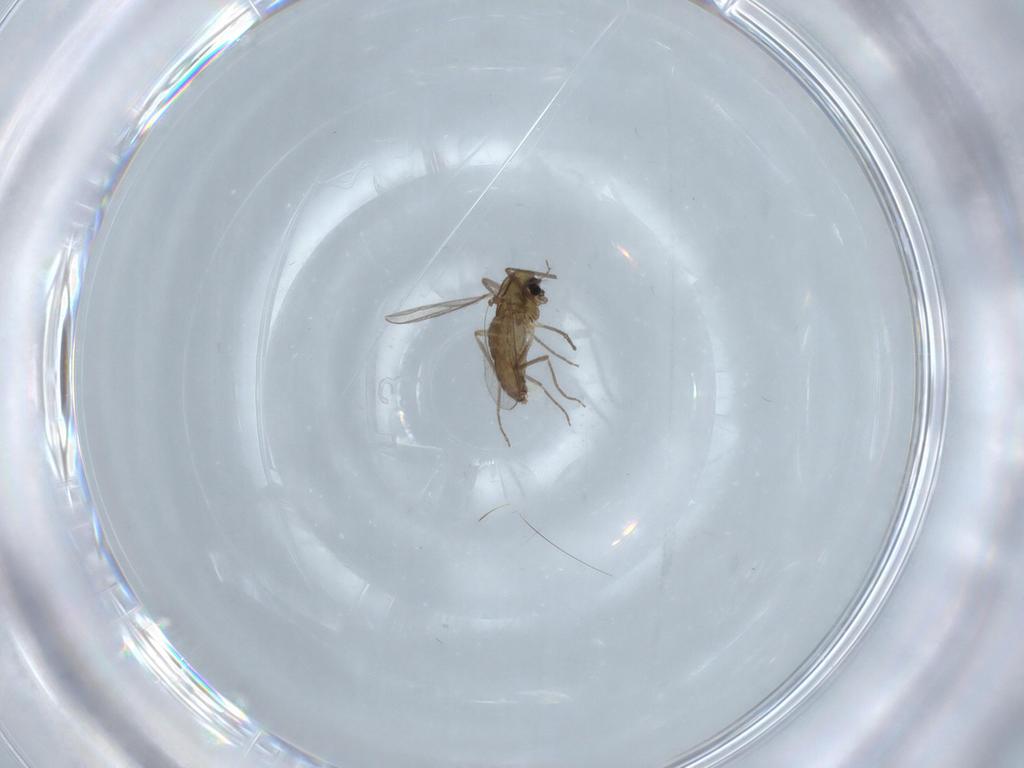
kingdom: Animalia
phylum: Arthropoda
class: Insecta
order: Diptera
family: Chironomidae
